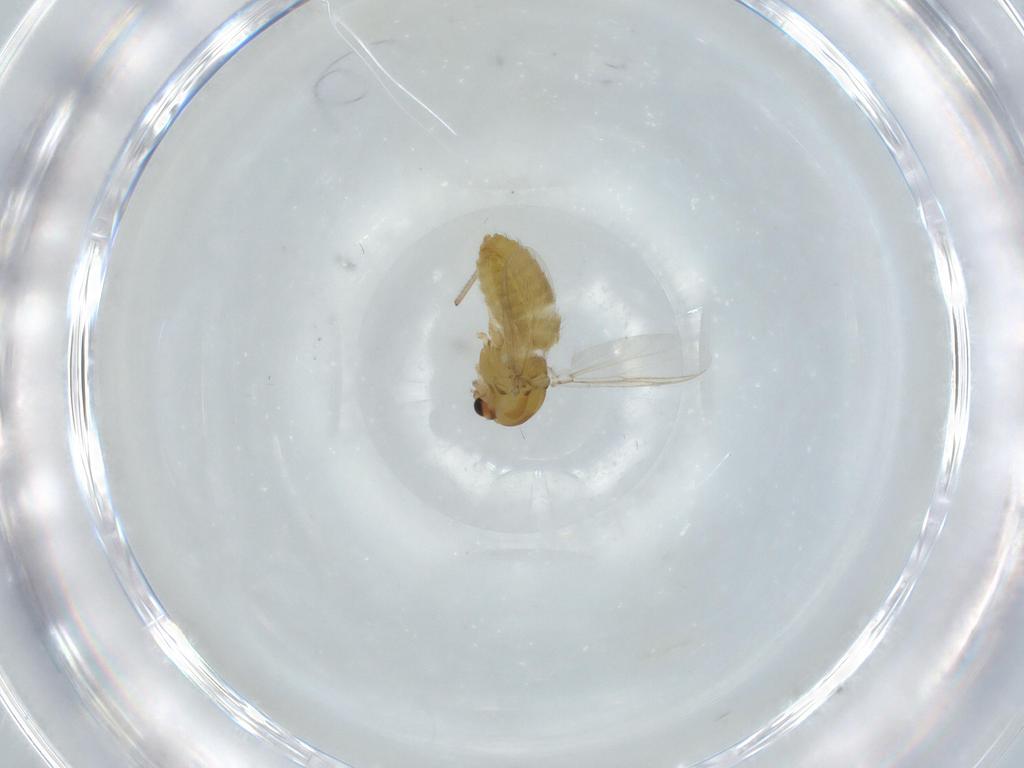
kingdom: Animalia
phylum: Arthropoda
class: Insecta
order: Diptera
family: Chironomidae
